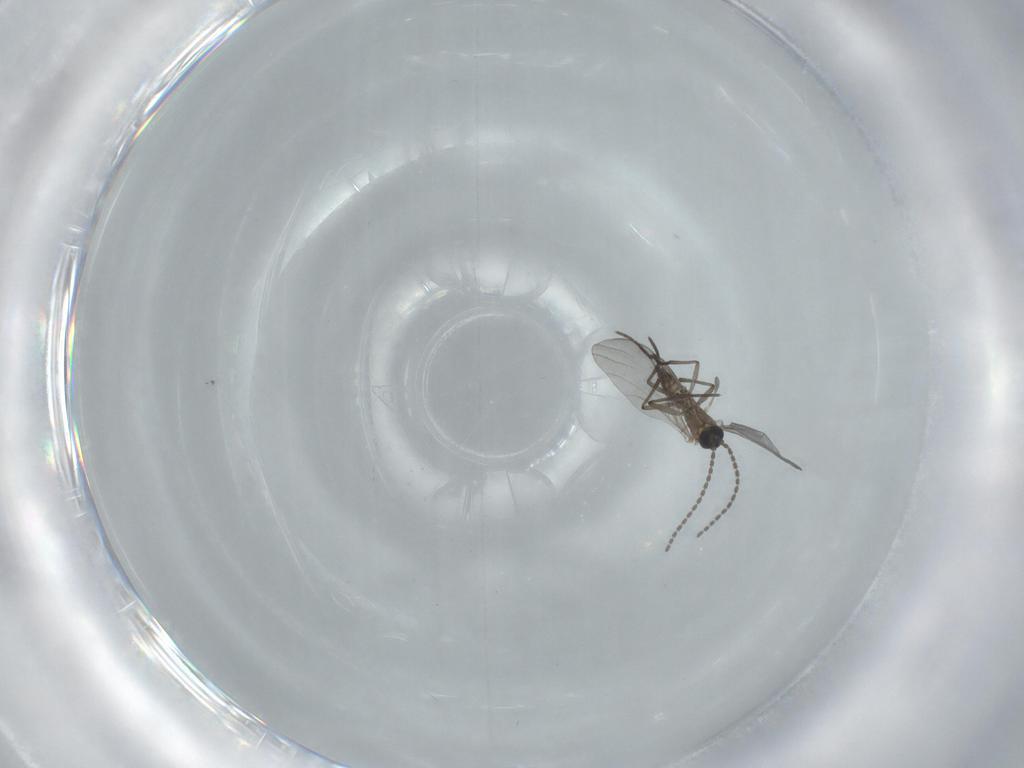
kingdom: Animalia
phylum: Arthropoda
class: Insecta
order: Diptera
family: Sciaridae
